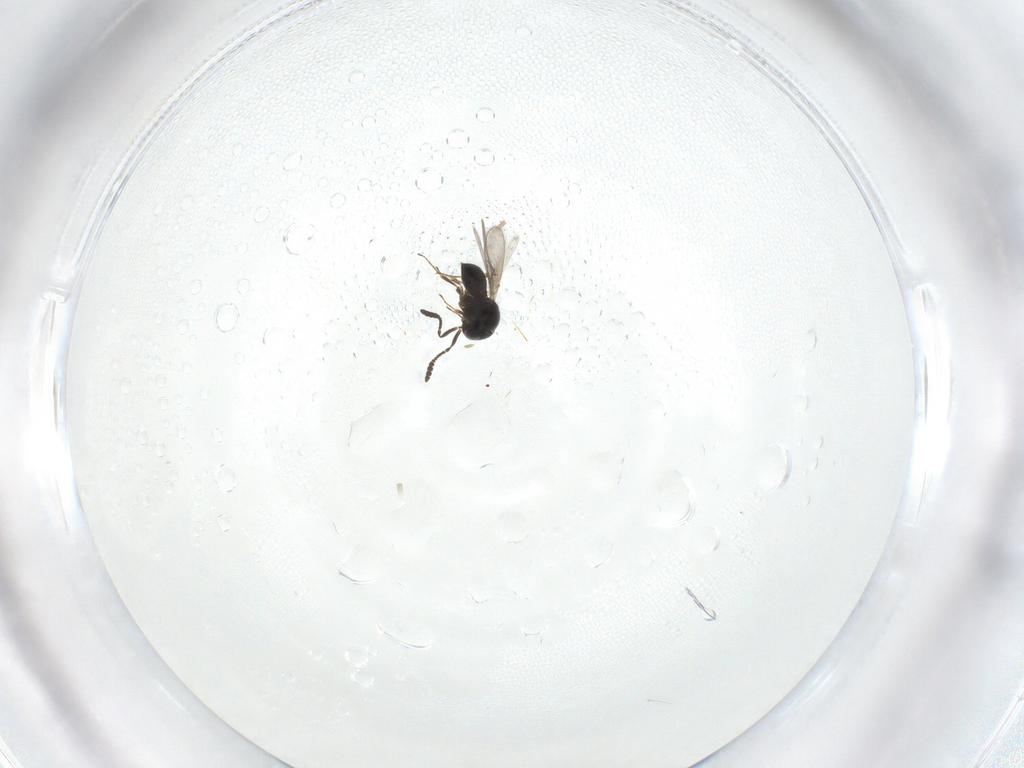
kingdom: Animalia
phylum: Arthropoda
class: Insecta
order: Hymenoptera
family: Scelionidae
